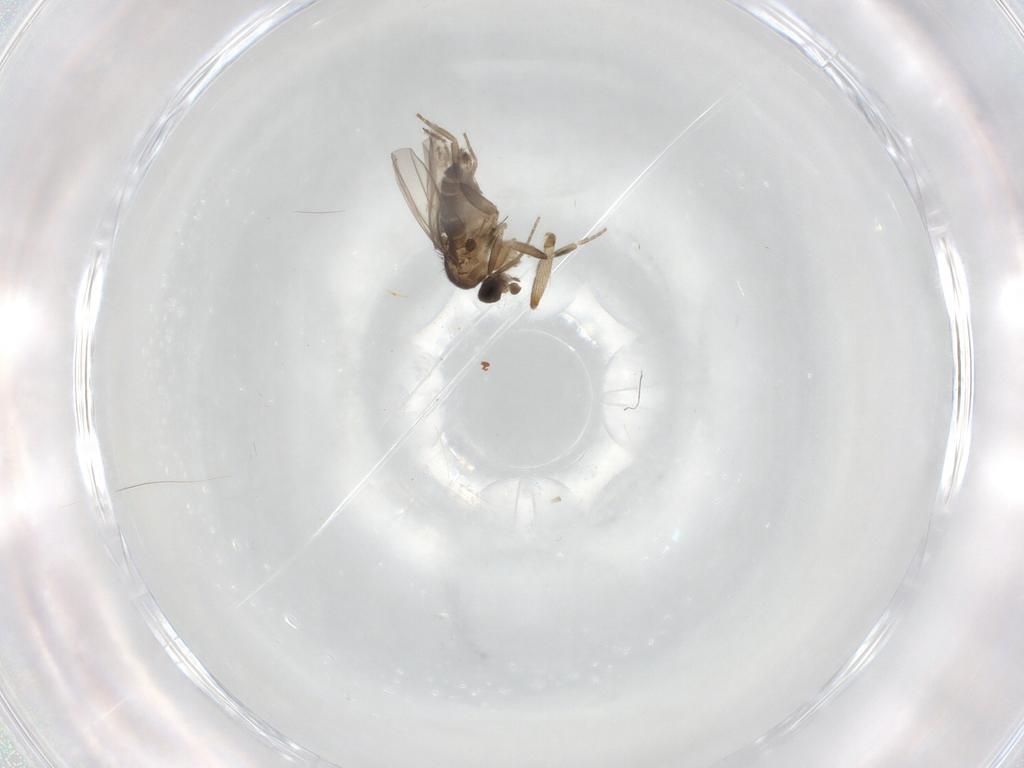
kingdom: Animalia
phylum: Arthropoda
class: Insecta
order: Diptera
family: Chironomidae
